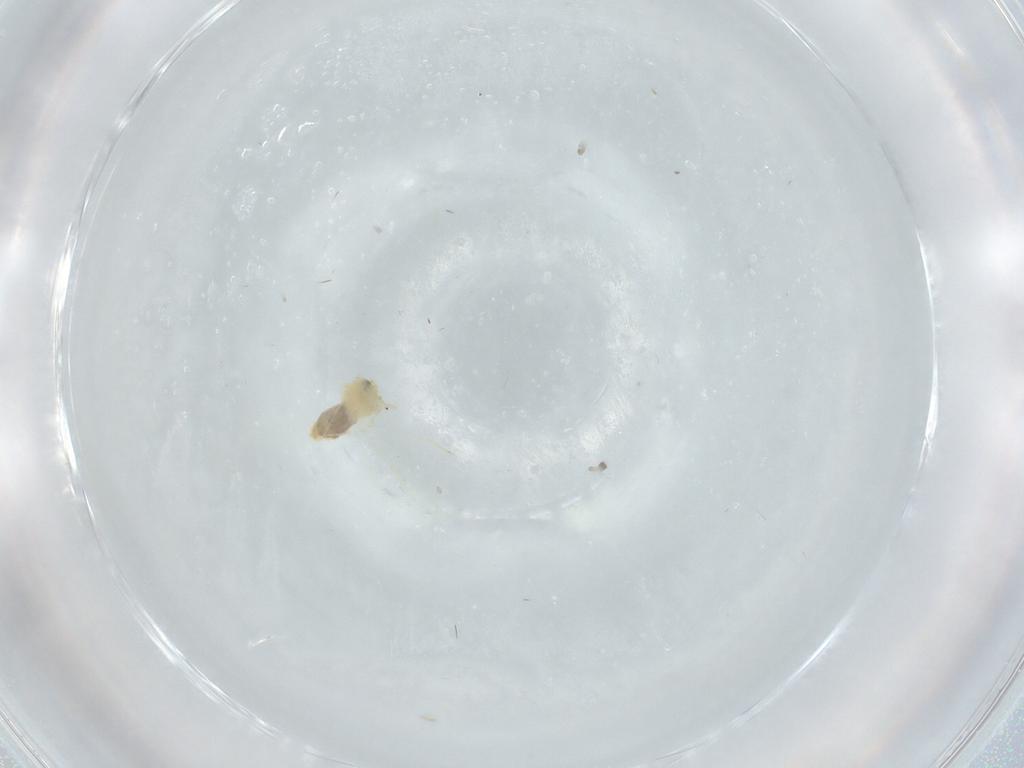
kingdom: Animalia
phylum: Arthropoda
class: Insecta
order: Hemiptera
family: Aleyrodidae
